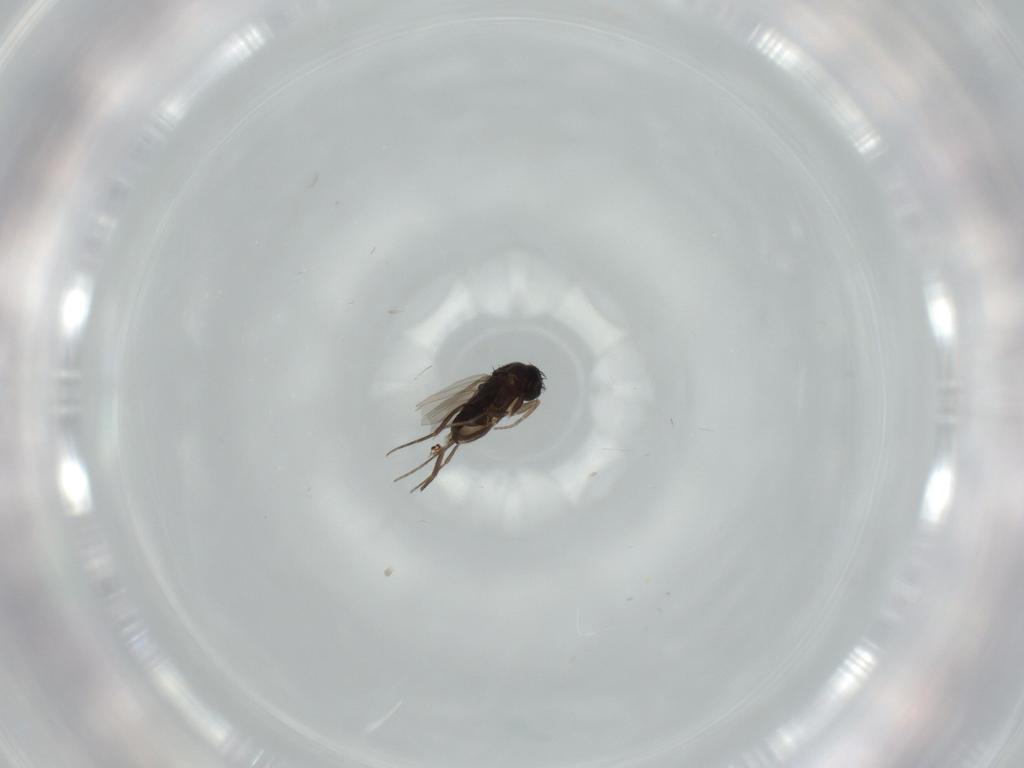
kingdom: Animalia
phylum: Arthropoda
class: Insecta
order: Diptera
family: Cecidomyiidae
